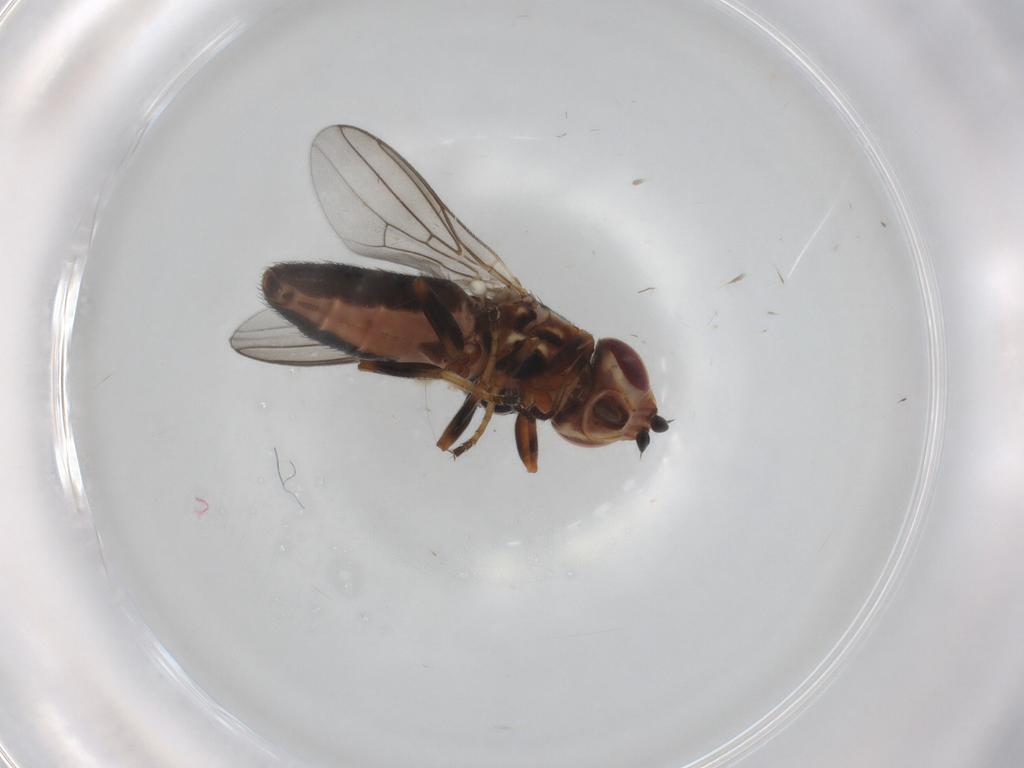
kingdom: Animalia
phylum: Arthropoda
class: Insecta
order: Diptera
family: Chloropidae
